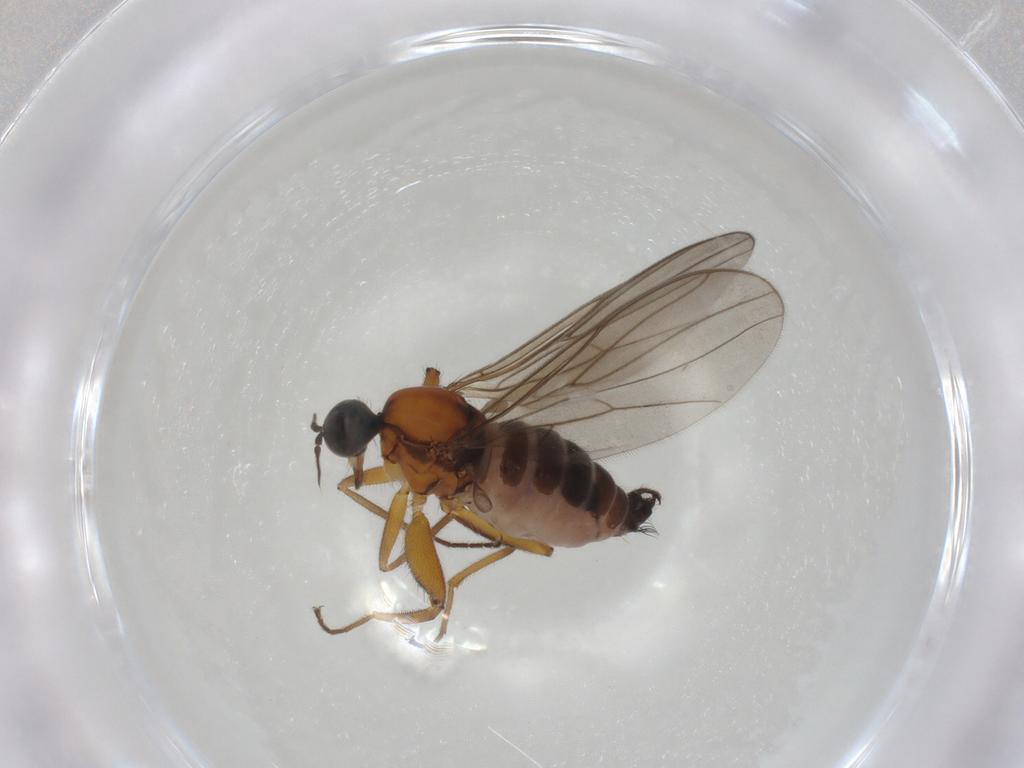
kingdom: Animalia
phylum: Arthropoda
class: Insecta
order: Diptera
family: Hybotidae
